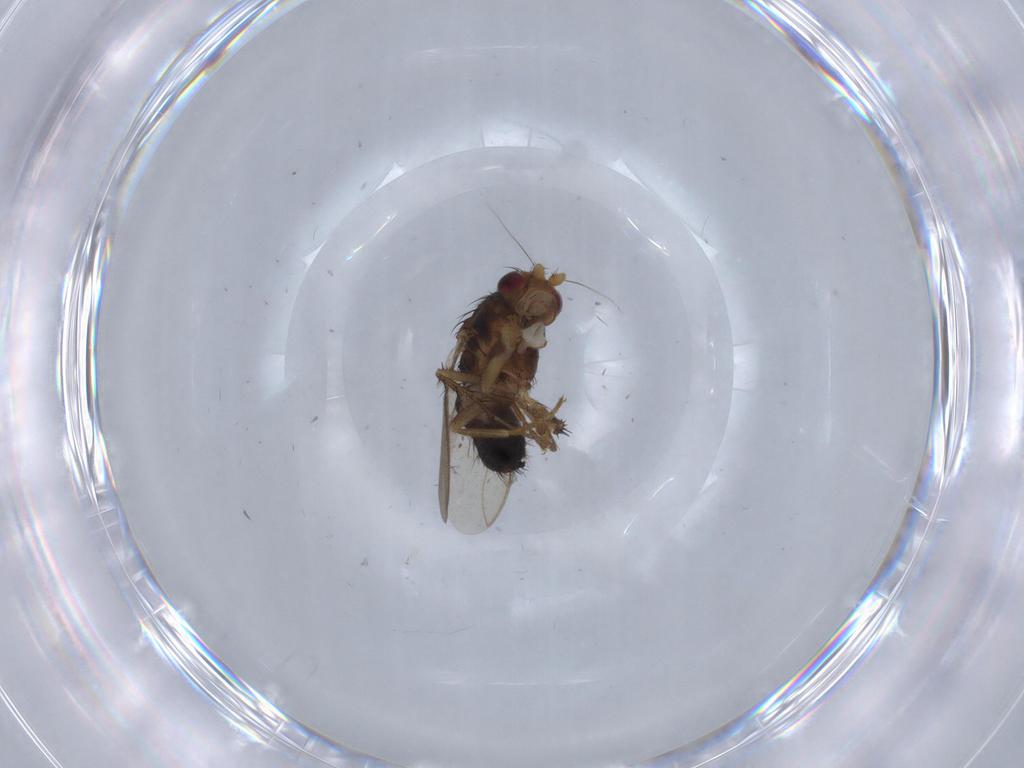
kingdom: Animalia
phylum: Arthropoda
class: Insecta
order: Diptera
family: Sphaeroceridae
